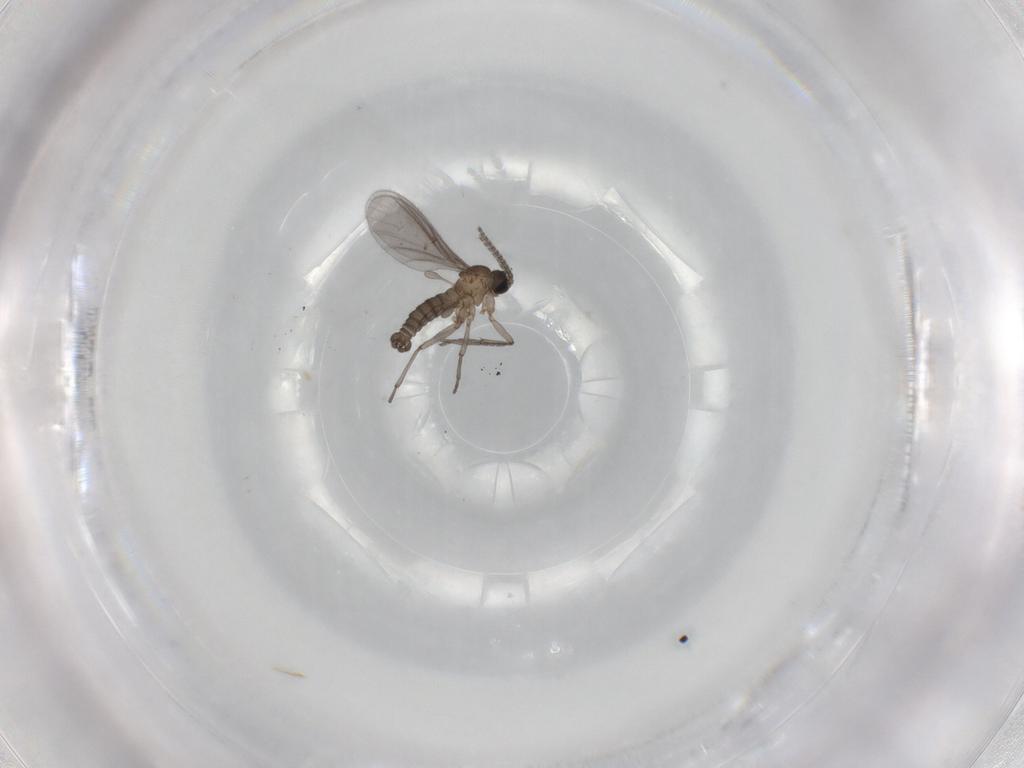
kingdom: Animalia
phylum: Arthropoda
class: Insecta
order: Diptera
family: Sciaridae
